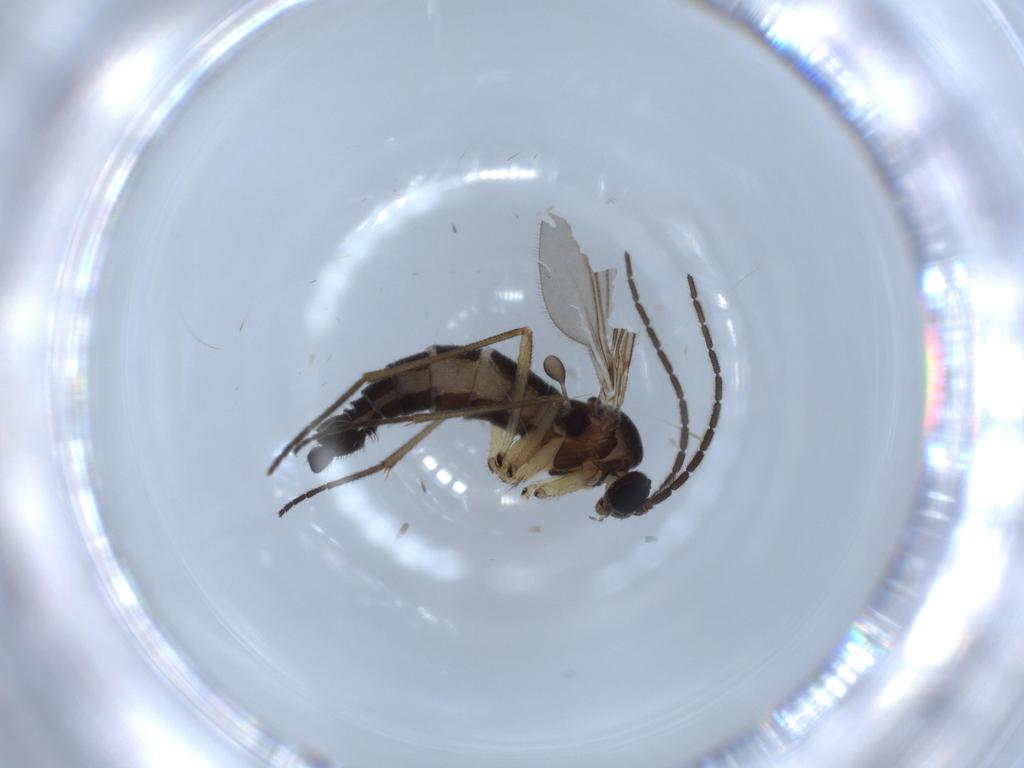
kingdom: Animalia
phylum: Arthropoda
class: Insecta
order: Diptera
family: Sciaridae
